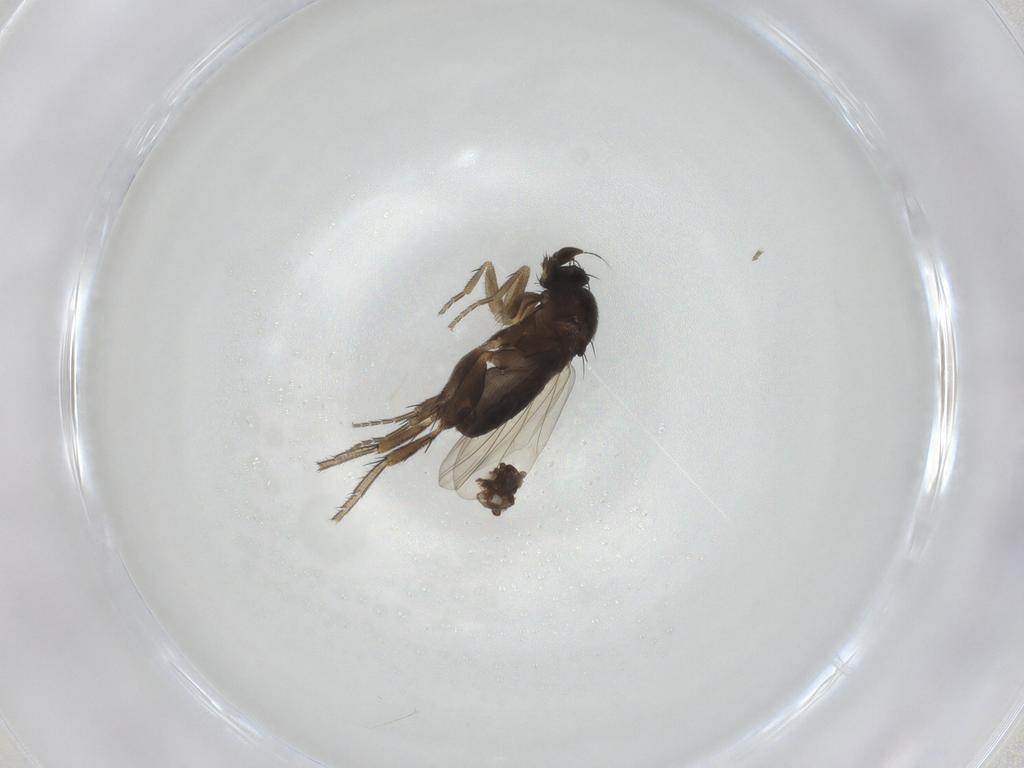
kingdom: Animalia
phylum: Arthropoda
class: Insecta
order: Diptera
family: Phoridae
